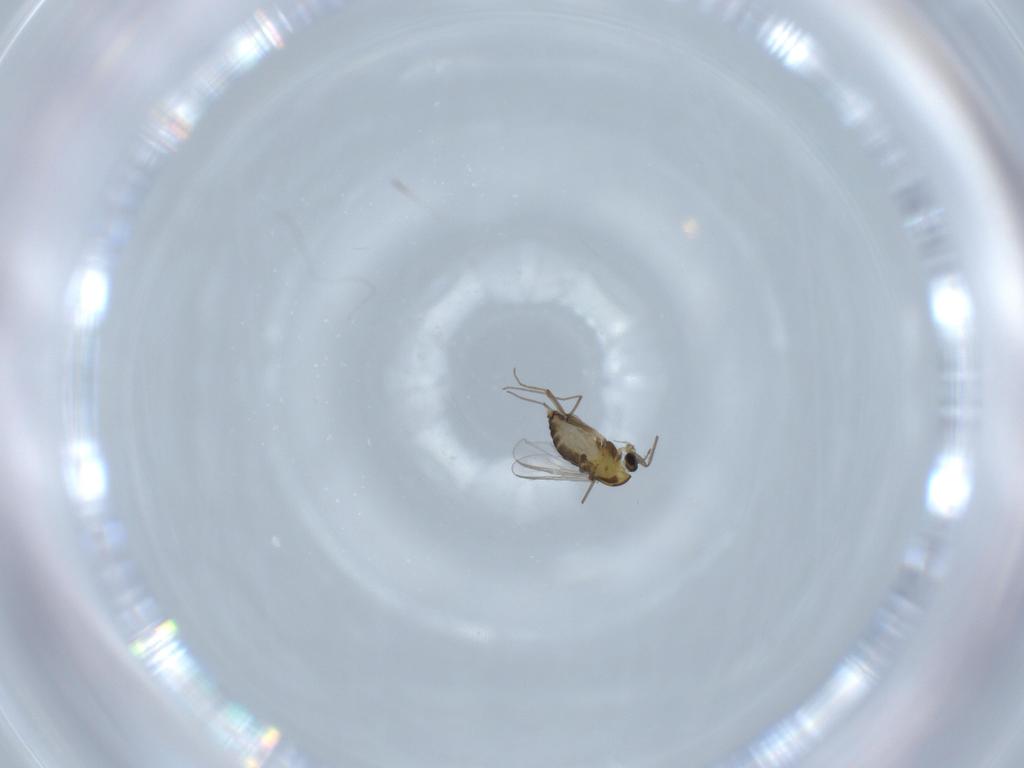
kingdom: Animalia
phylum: Arthropoda
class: Insecta
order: Diptera
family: Chironomidae
